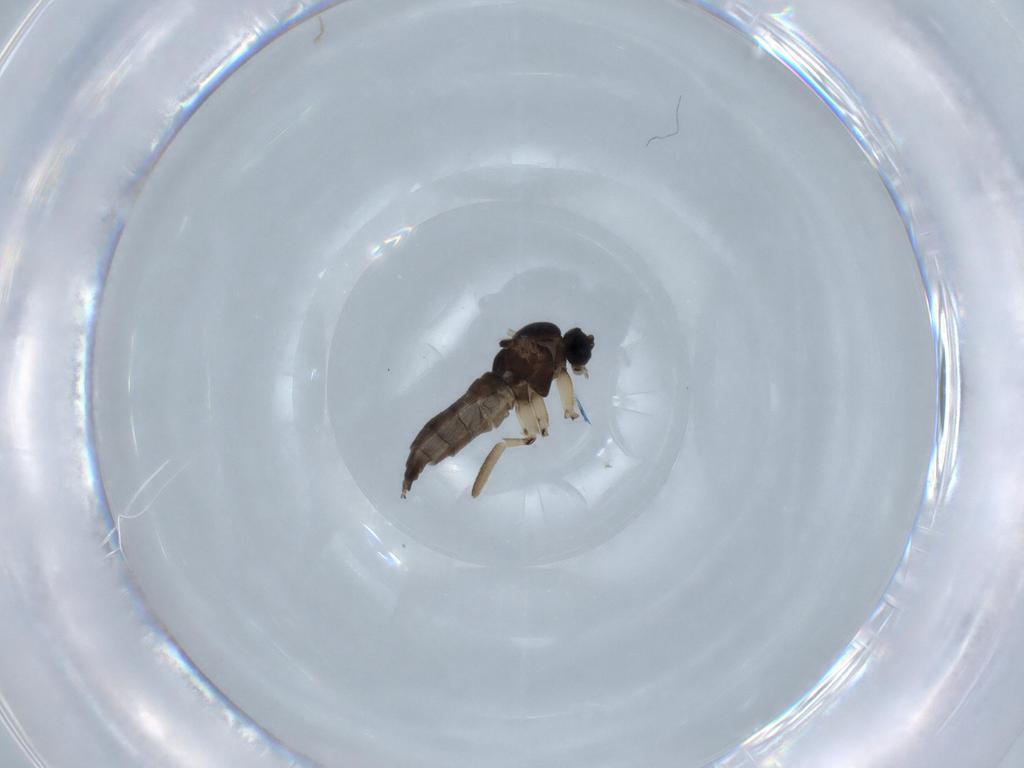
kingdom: Animalia
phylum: Arthropoda
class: Insecta
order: Diptera
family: Sciaridae
